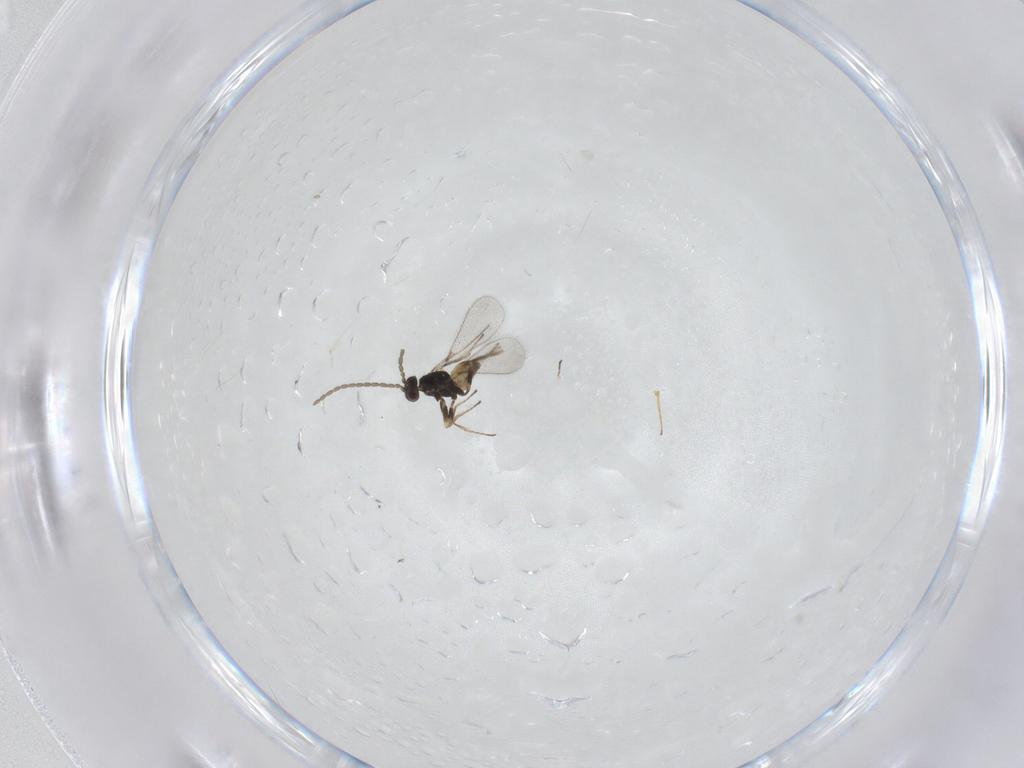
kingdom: Animalia
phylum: Arthropoda
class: Insecta
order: Hymenoptera
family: Mymaridae
